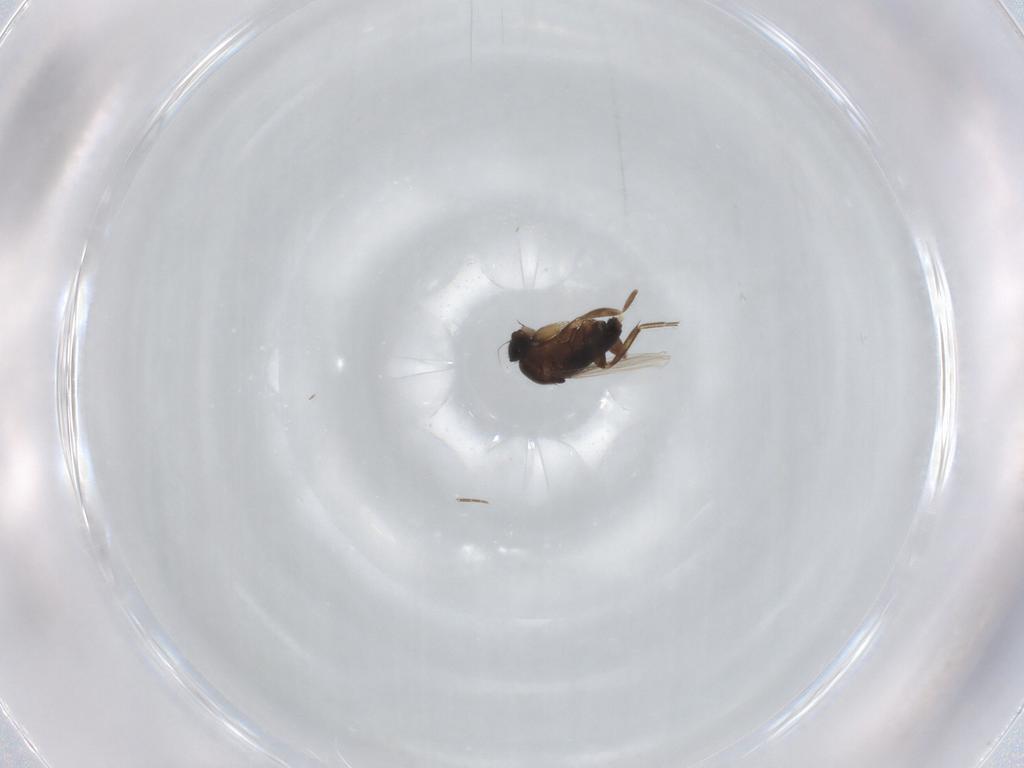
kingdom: Animalia
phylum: Arthropoda
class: Insecta
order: Diptera
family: Phoridae
